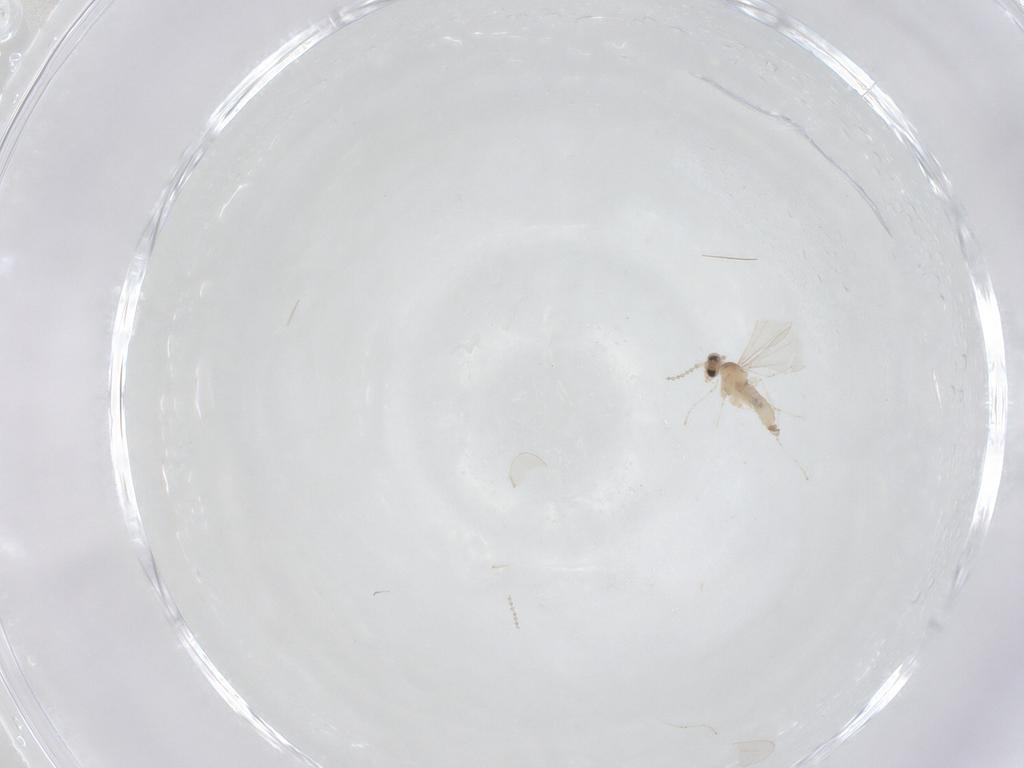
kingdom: Animalia
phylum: Arthropoda
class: Insecta
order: Diptera
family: Cecidomyiidae
